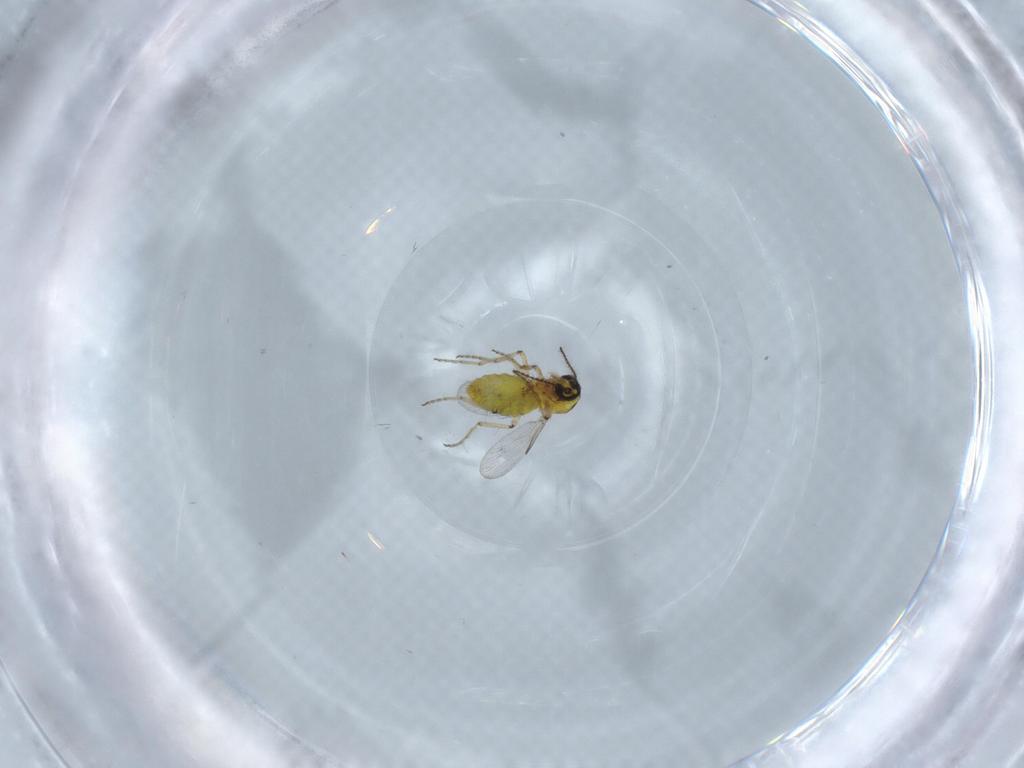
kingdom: Animalia
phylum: Arthropoda
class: Insecta
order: Diptera
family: Ceratopogonidae
